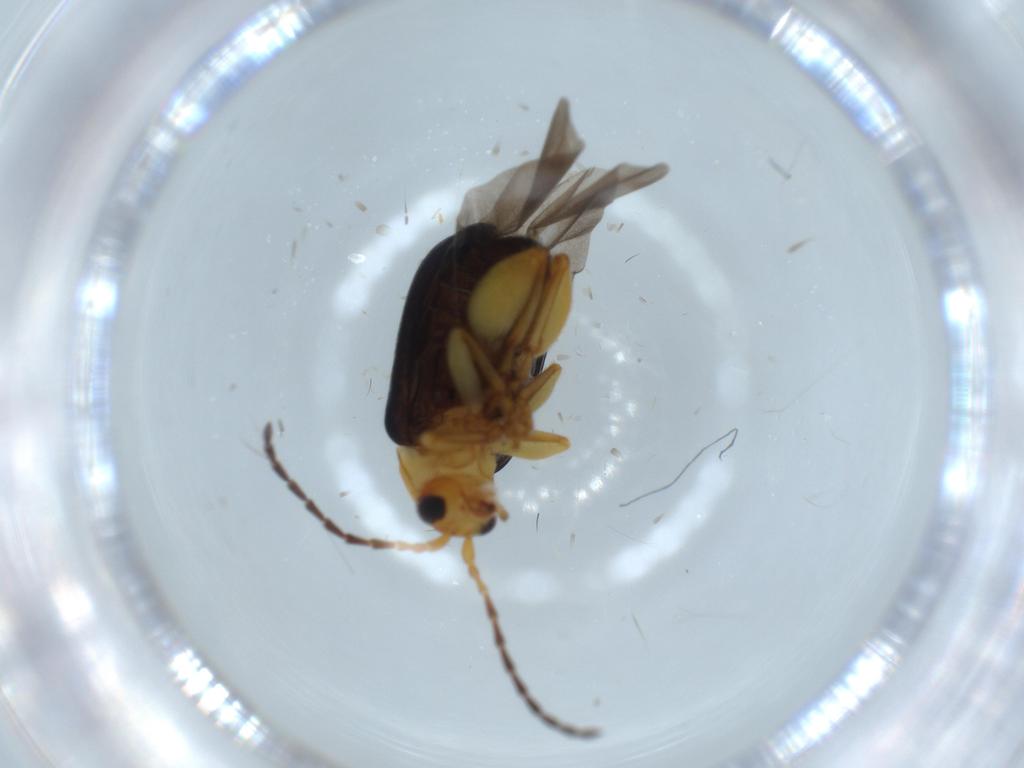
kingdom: Animalia
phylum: Arthropoda
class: Insecta
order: Coleoptera
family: Chrysomelidae
